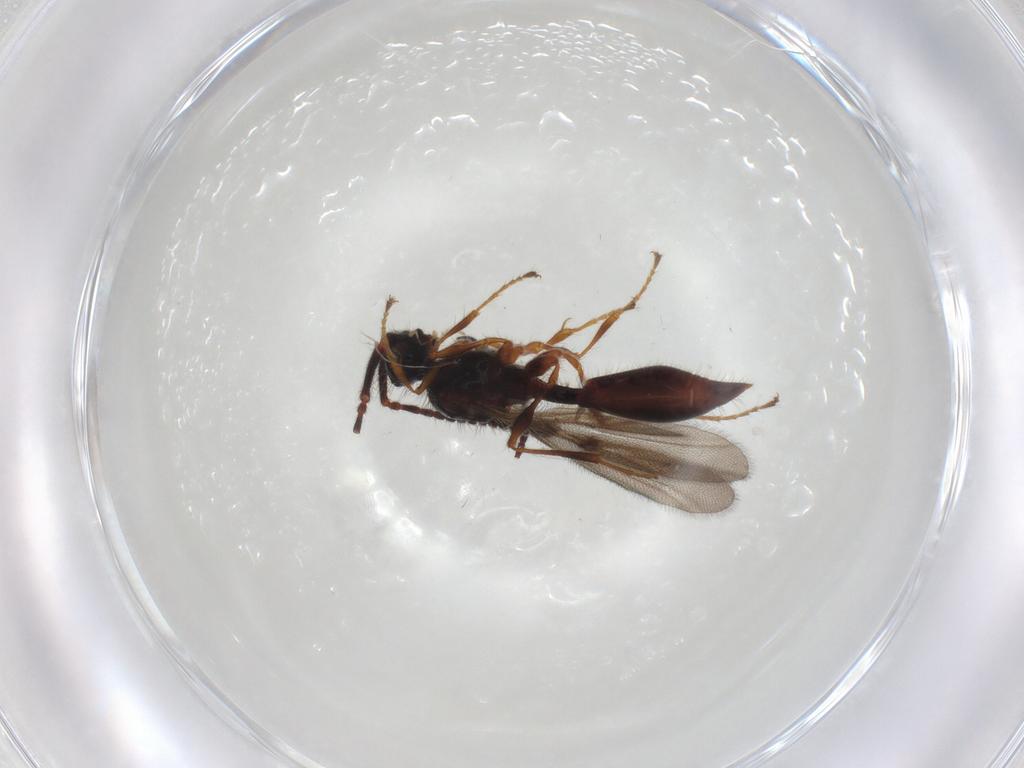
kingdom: Animalia
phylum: Arthropoda
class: Insecta
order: Hymenoptera
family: Diapriidae
